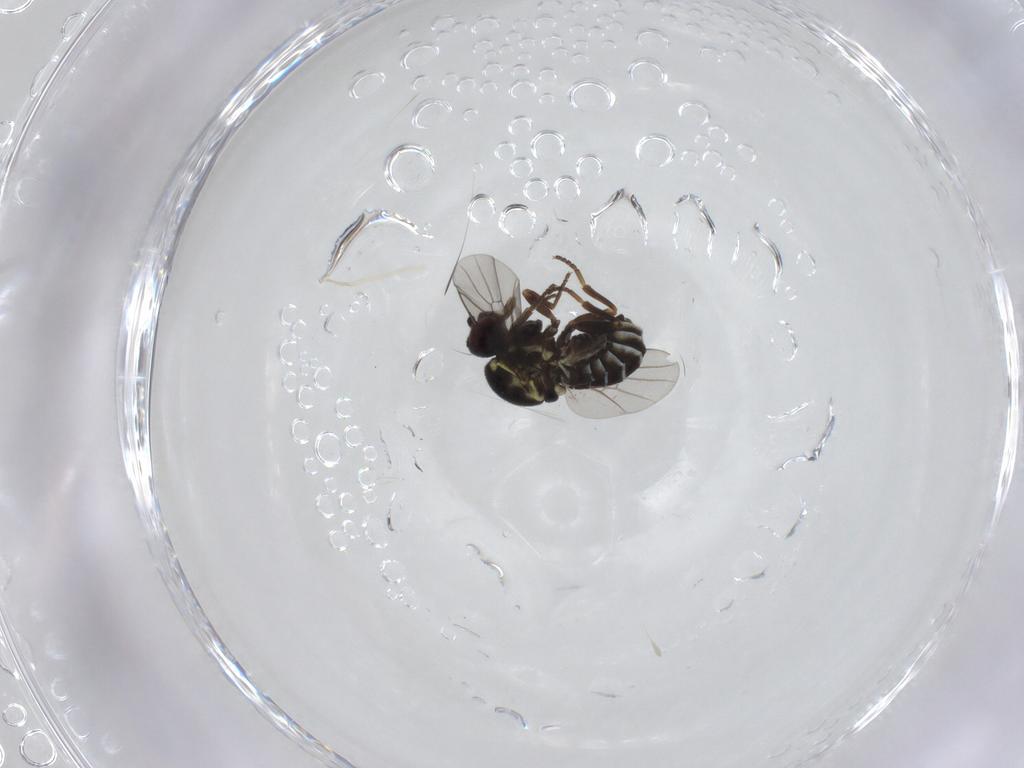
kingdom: Animalia
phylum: Arthropoda
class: Insecta
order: Diptera
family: Bombyliidae
